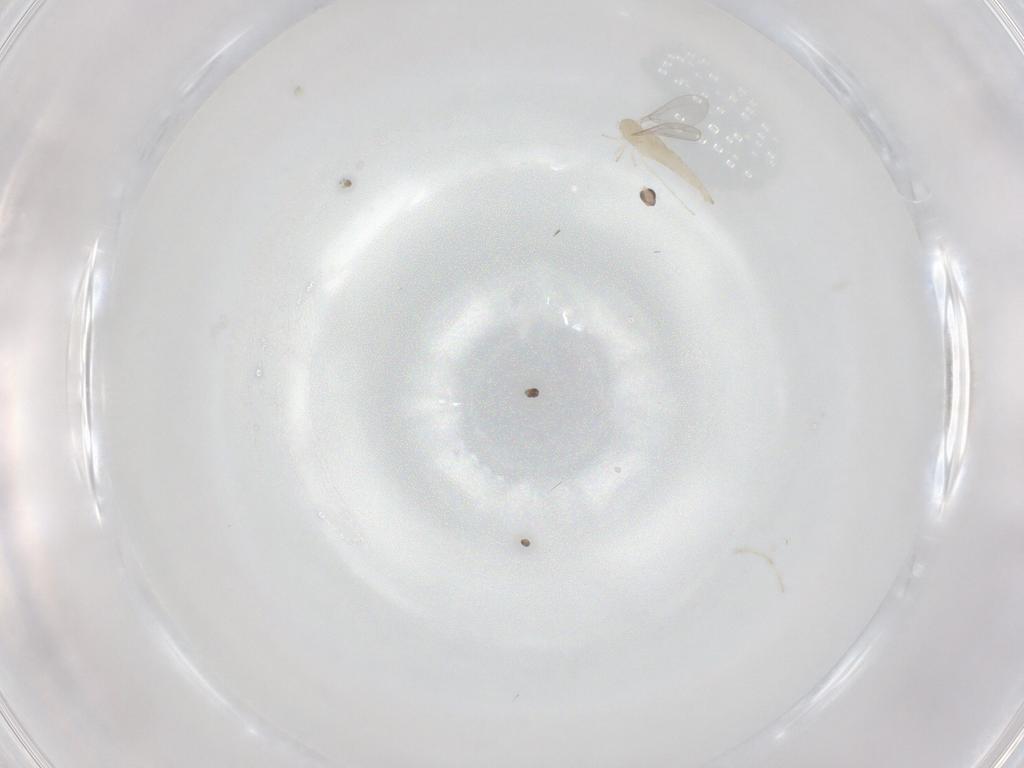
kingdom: Animalia
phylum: Arthropoda
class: Insecta
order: Diptera
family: Cecidomyiidae
